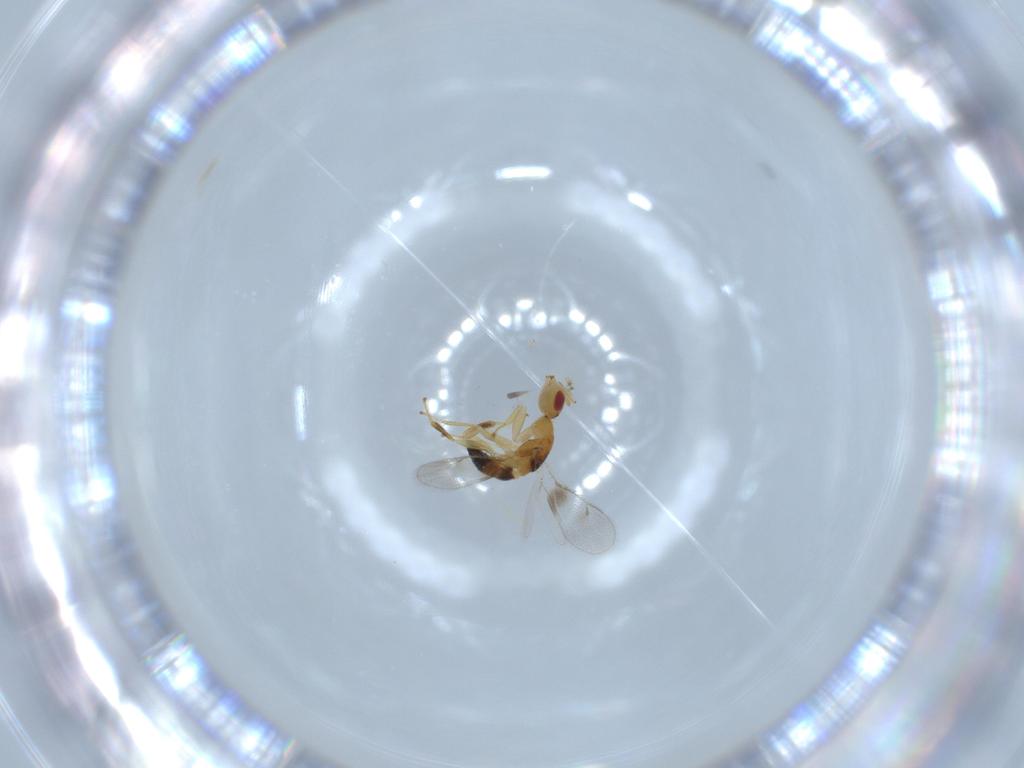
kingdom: Animalia
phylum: Arthropoda
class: Insecta
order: Hymenoptera
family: Torymidae
